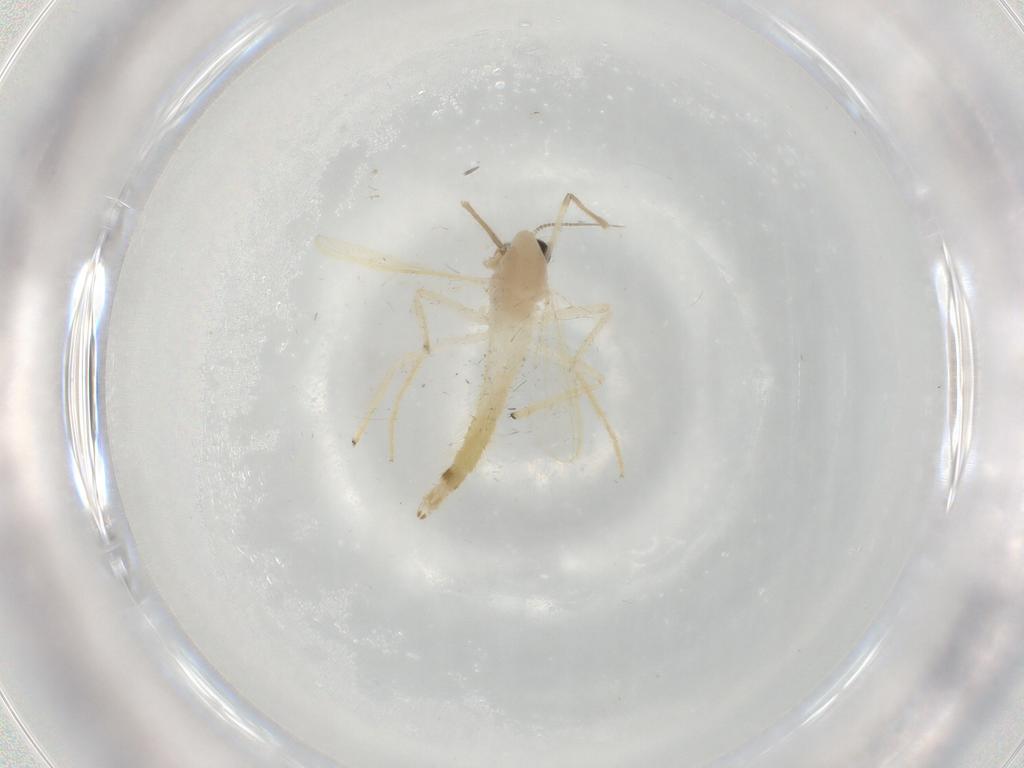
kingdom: Animalia
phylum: Arthropoda
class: Insecta
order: Diptera
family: Chironomidae
